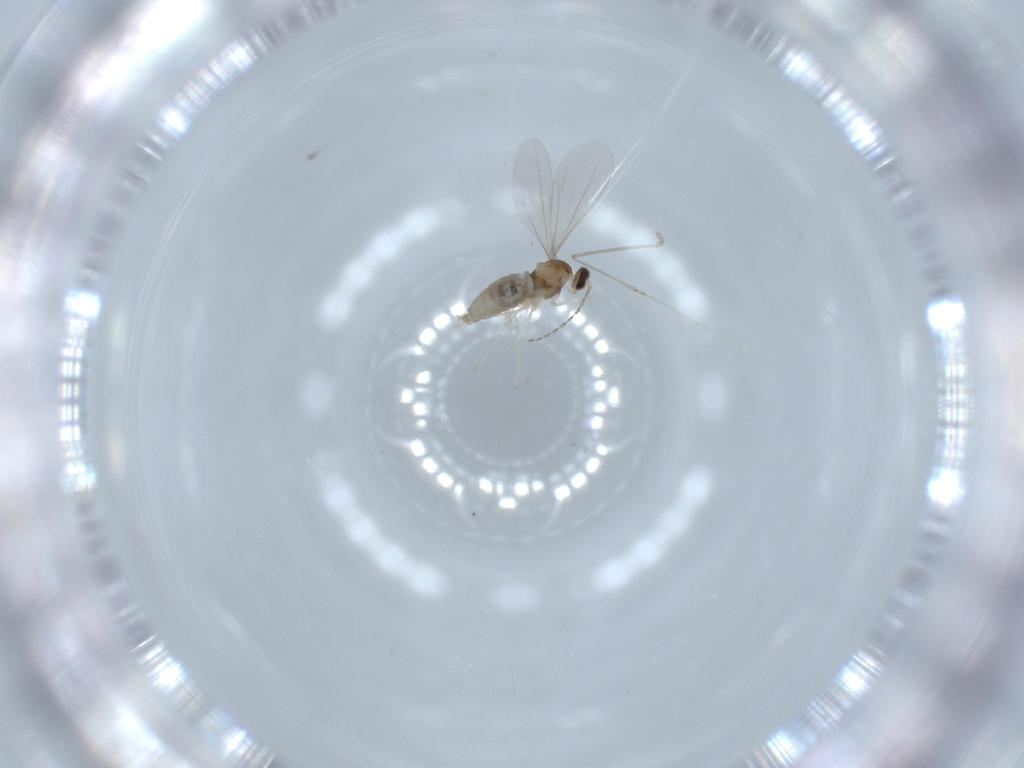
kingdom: Animalia
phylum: Arthropoda
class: Insecta
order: Diptera
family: Cecidomyiidae
